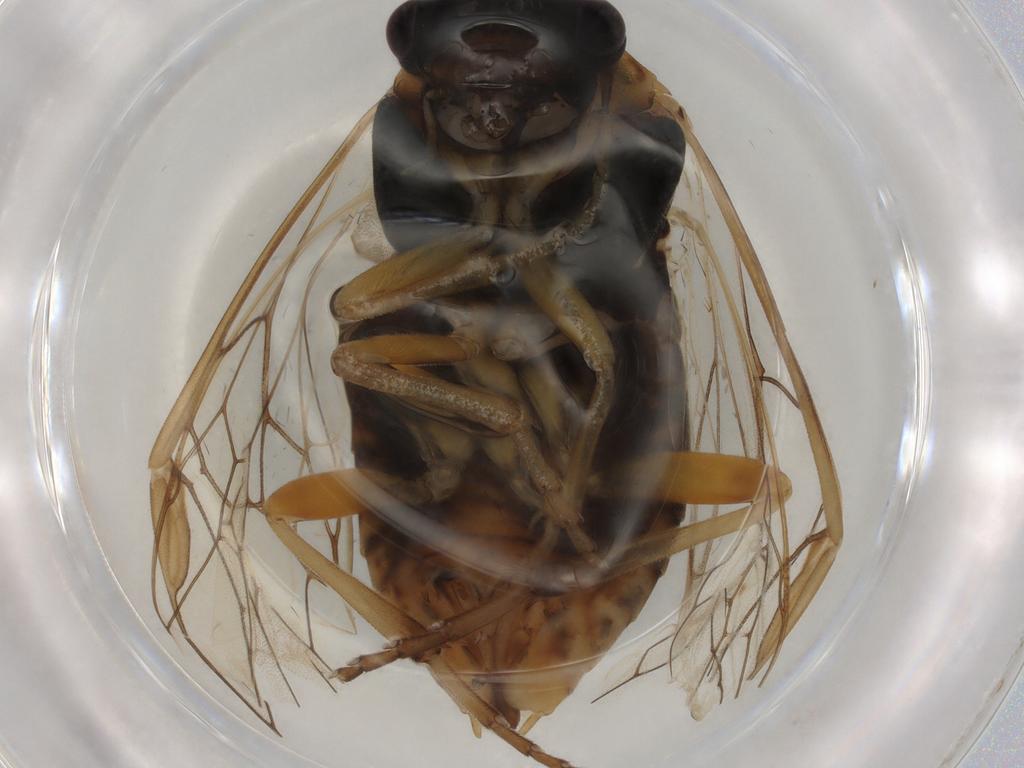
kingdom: Animalia
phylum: Arthropoda
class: Insecta
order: Hymenoptera
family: Tenthredinidae
